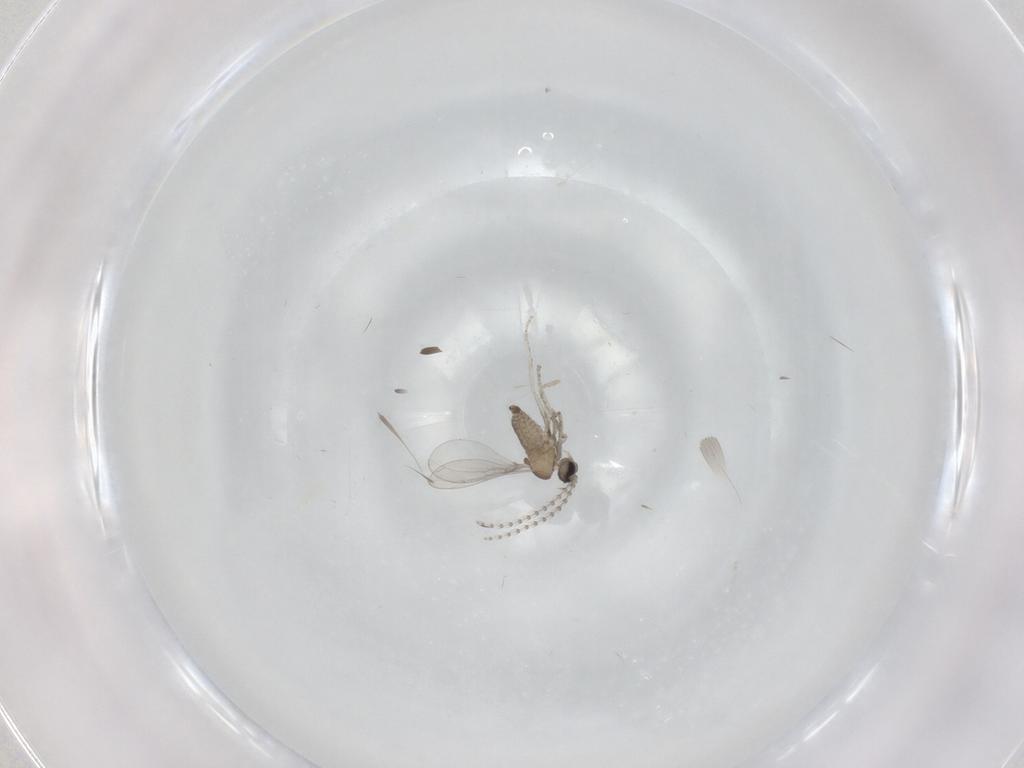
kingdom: Animalia
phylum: Arthropoda
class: Insecta
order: Diptera
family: Cecidomyiidae
